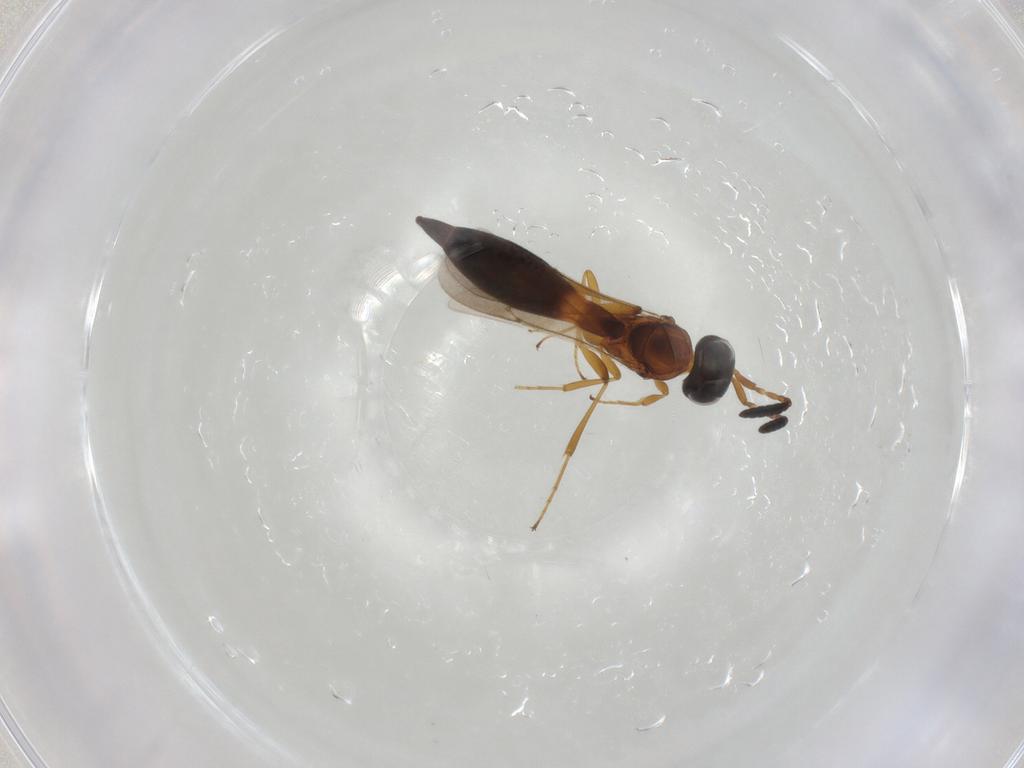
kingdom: Animalia
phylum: Arthropoda
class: Insecta
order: Hymenoptera
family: Scelionidae
